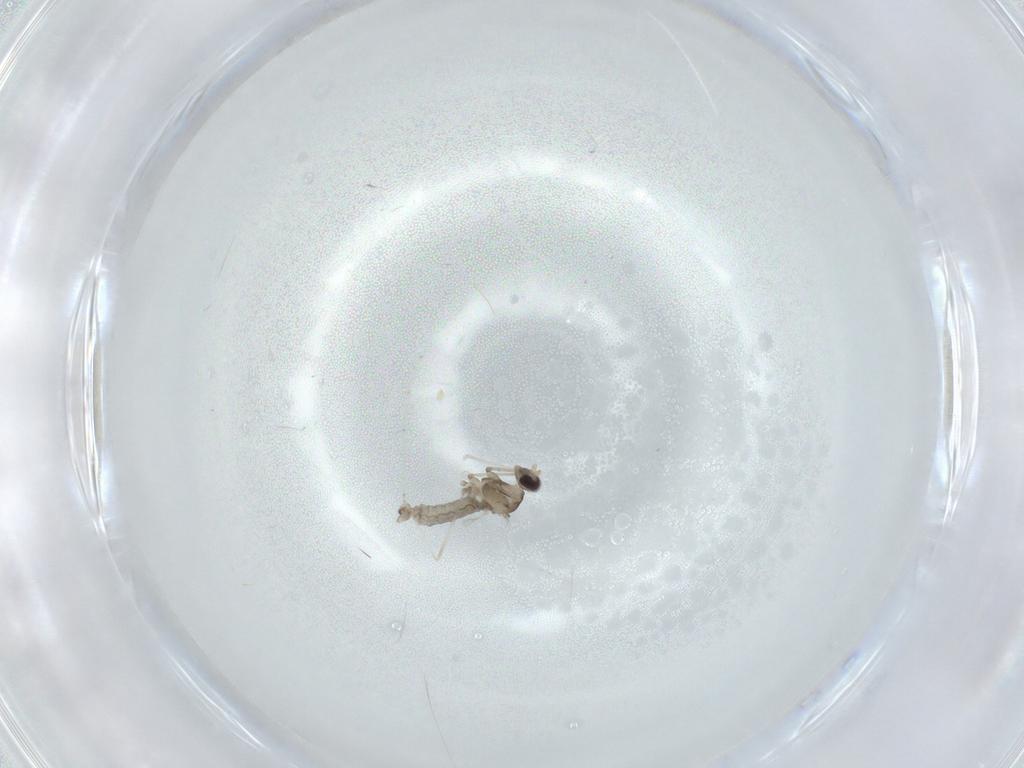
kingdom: Animalia
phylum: Arthropoda
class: Insecta
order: Diptera
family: Cecidomyiidae
